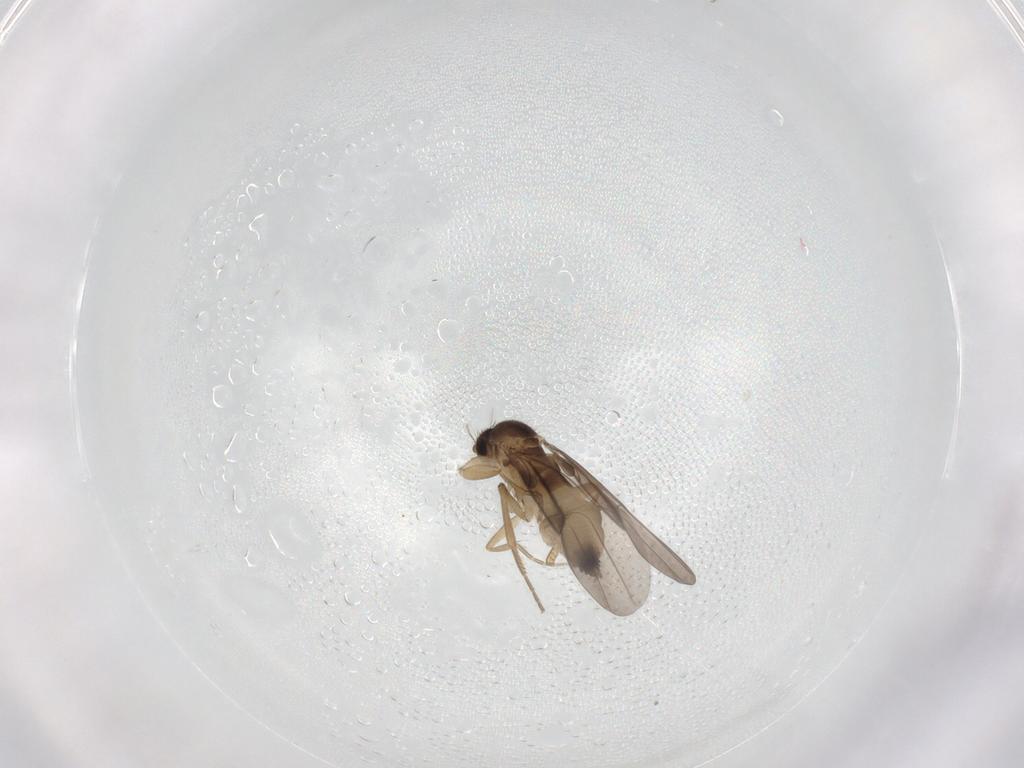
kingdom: Animalia
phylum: Arthropoda
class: Insecta
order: Diptera
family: Phoridae
